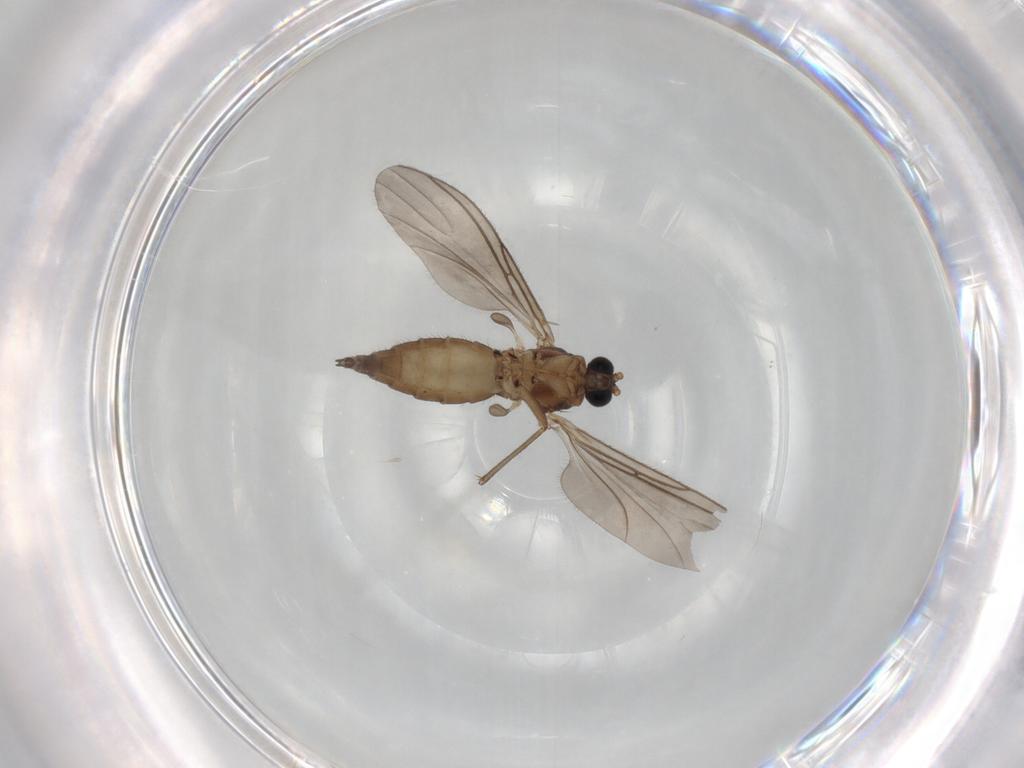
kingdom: Animalia
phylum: Arthropoda
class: Insecta
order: Diptera
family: Sciaridae
